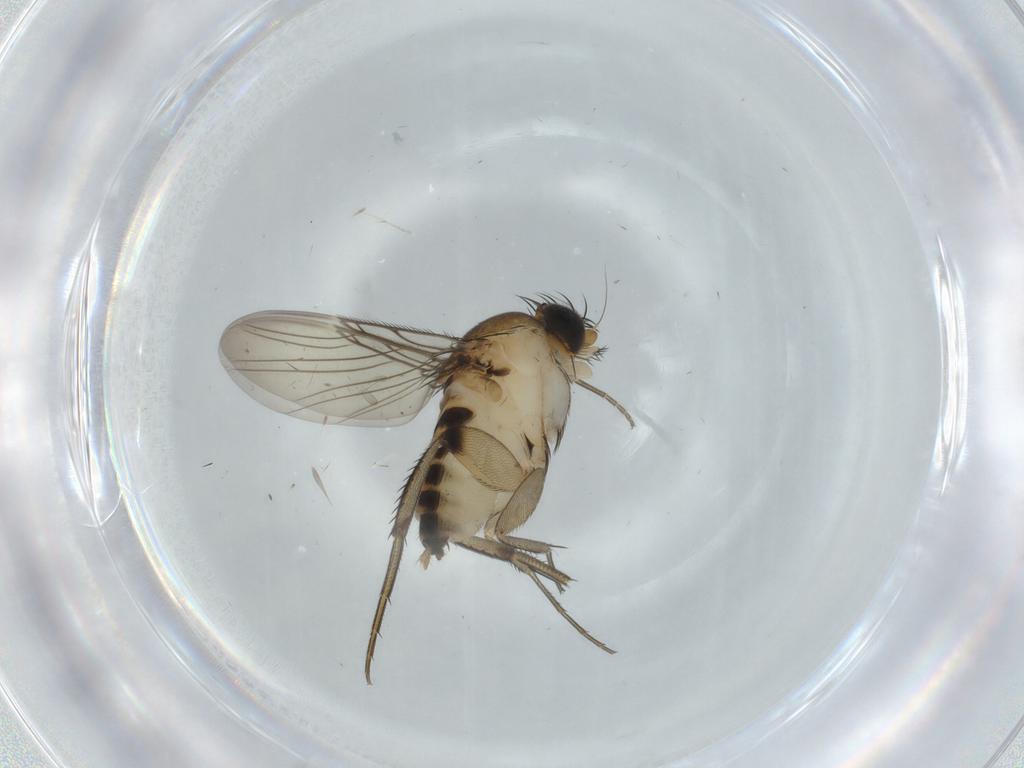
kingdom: Animalia
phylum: Arthropoda
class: Insecta
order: Diptera
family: Phoridae
